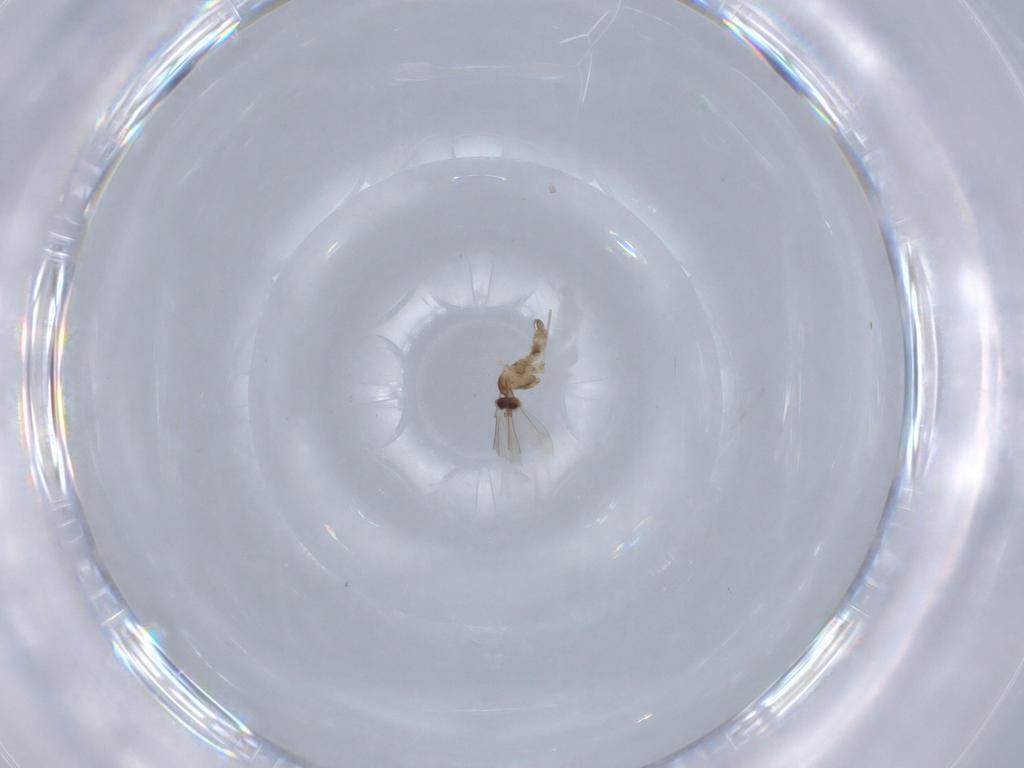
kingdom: Animalia
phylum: Arthropoda
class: Insecta
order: Diptera
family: Cecidomyiidae
